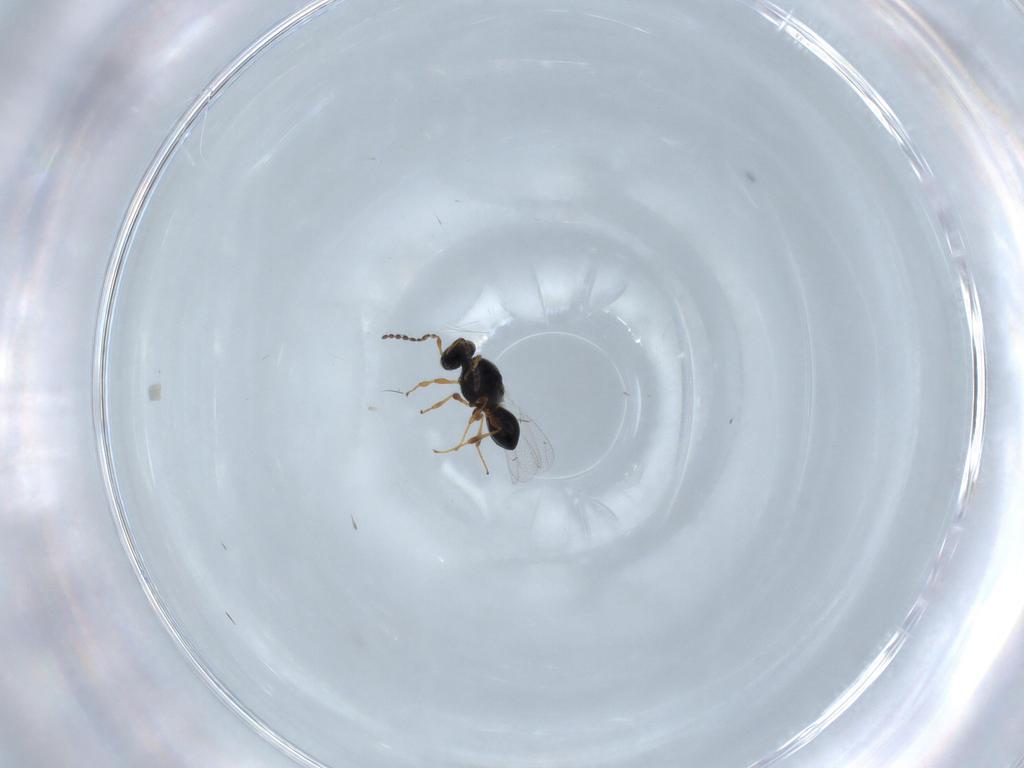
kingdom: Animalia
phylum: Arthropoda
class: Insecta
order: Hymenoptera
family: Platygastridae
